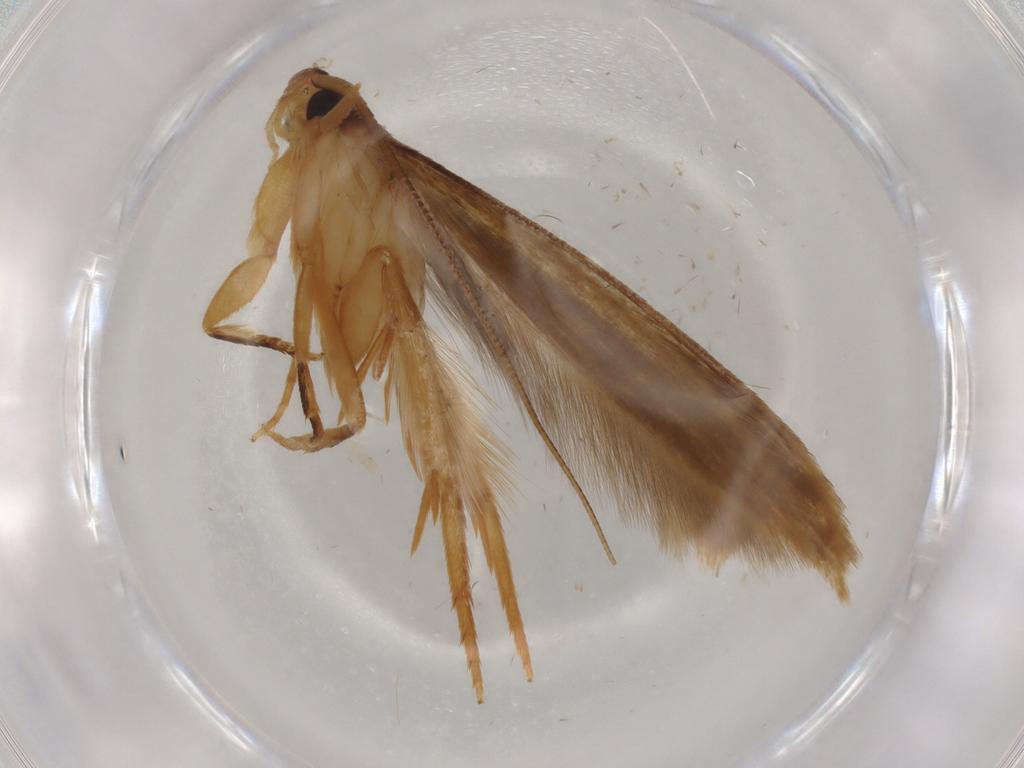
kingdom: Animalia
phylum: Arthropoda
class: Insecta
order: Lepidoptera
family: Tineidae
